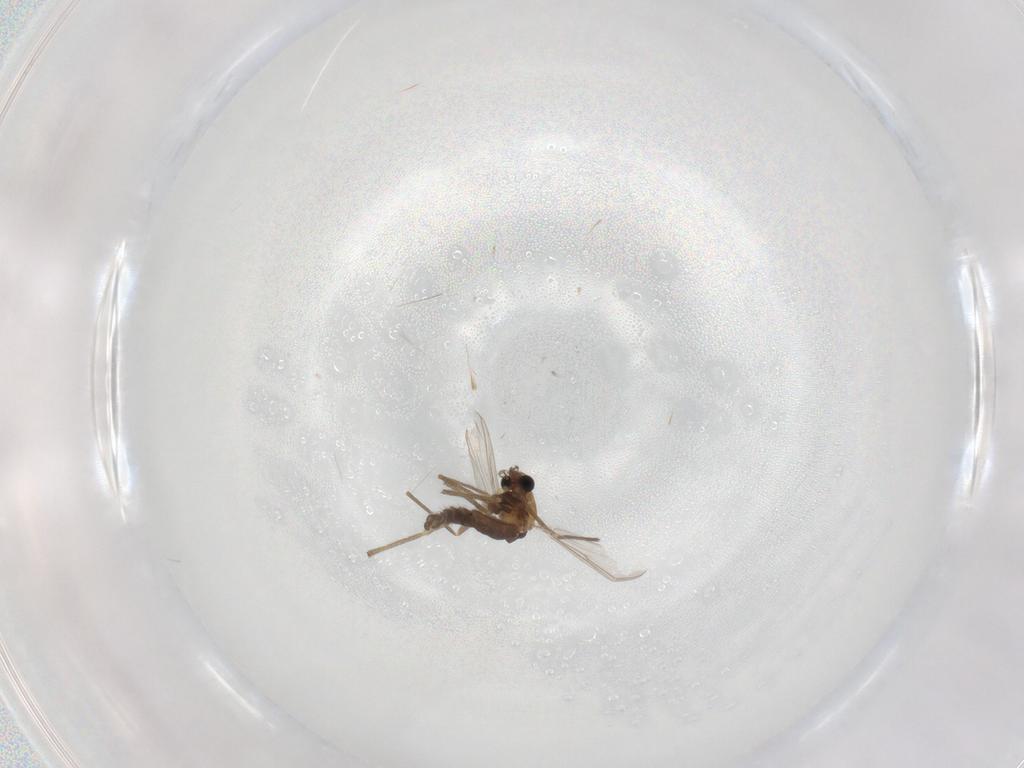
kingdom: Animalia
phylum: Arthropoda
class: Insecta
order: Diptera
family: Chironomidae
